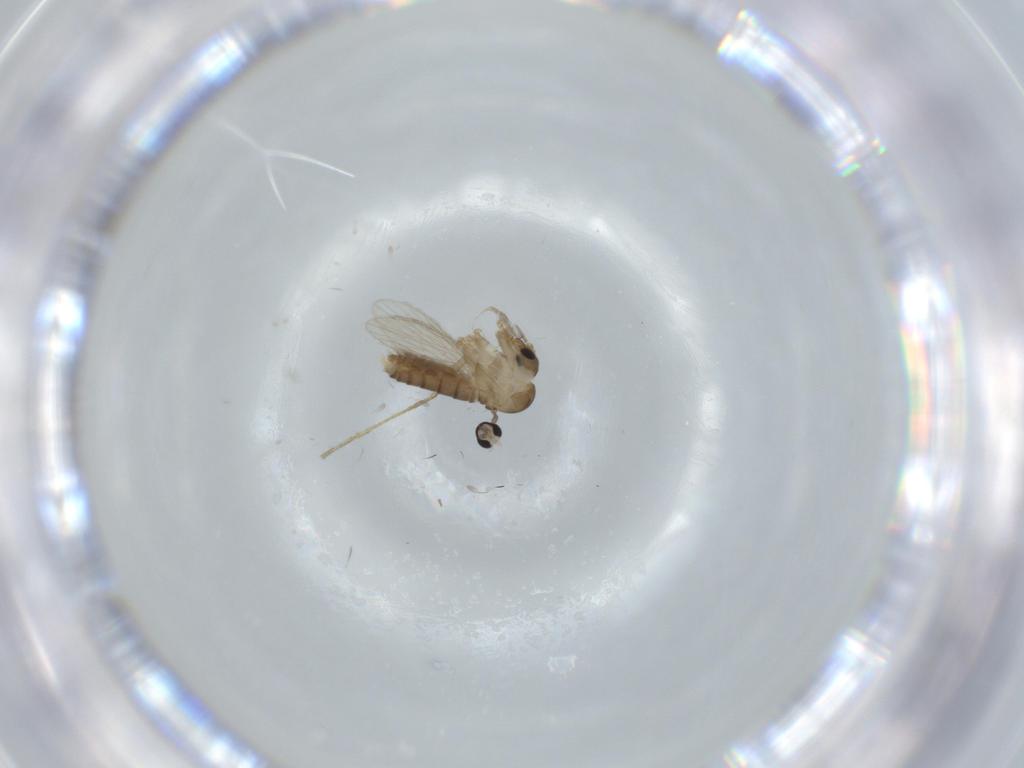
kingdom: Animalia
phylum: Arthropoda
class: Insecta
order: Diptera
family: Psychodidae
